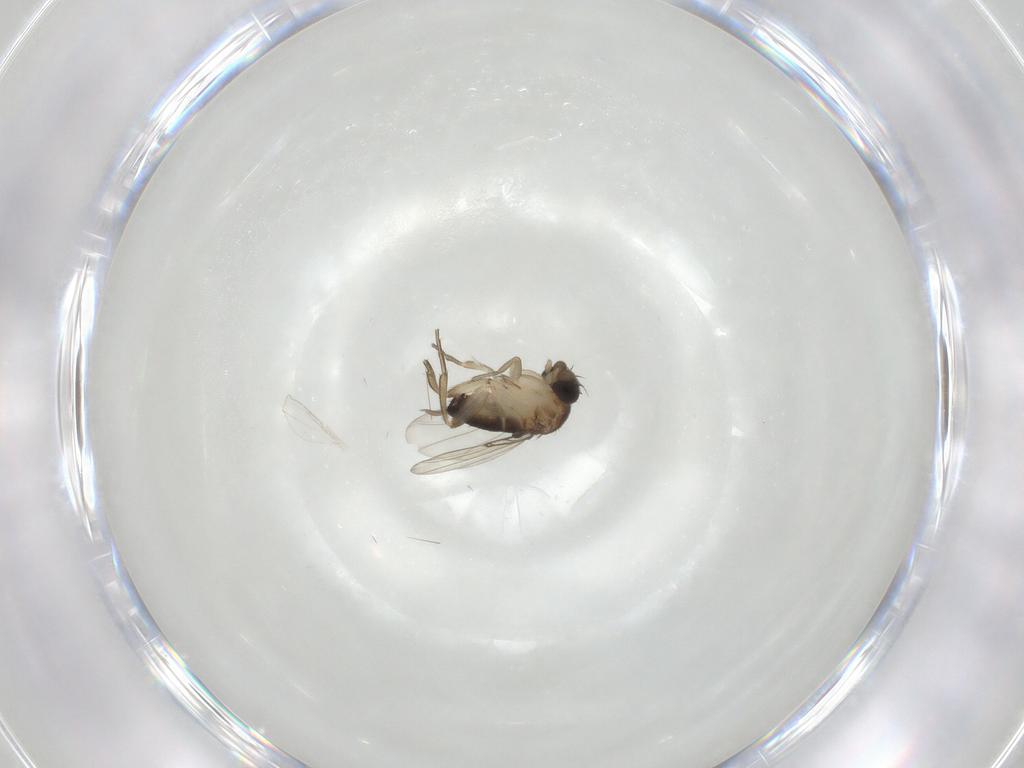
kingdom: Animalia
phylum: Arthropoda
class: Insecta
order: Diptera
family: Cecidomyiidae
